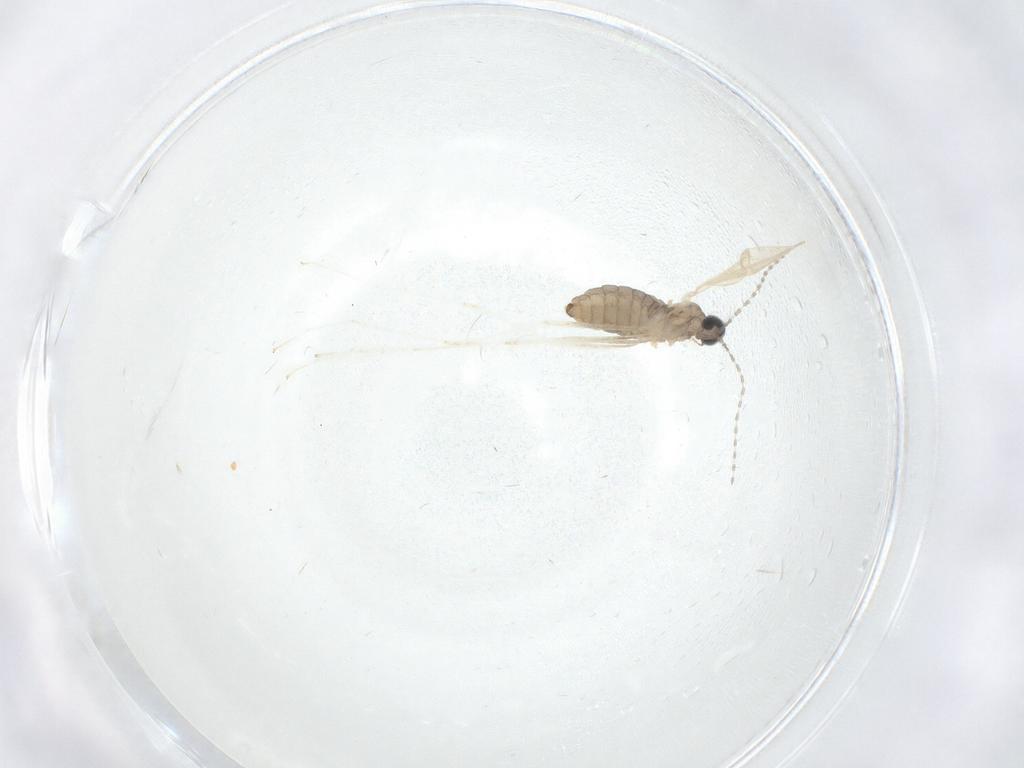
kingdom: Animalia
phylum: Arthropoda
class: Insecta
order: Diptera
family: Cecidomyiidae
